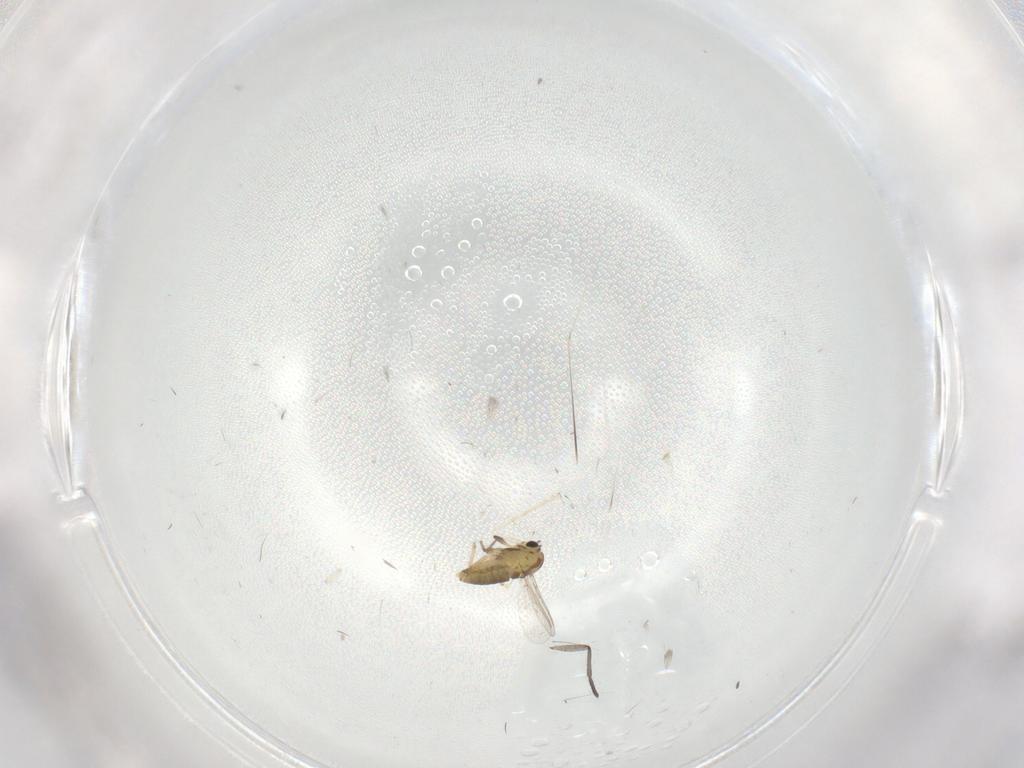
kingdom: Animalia
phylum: Arthropoda
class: Insecta
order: Diptera
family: Chironomidae
